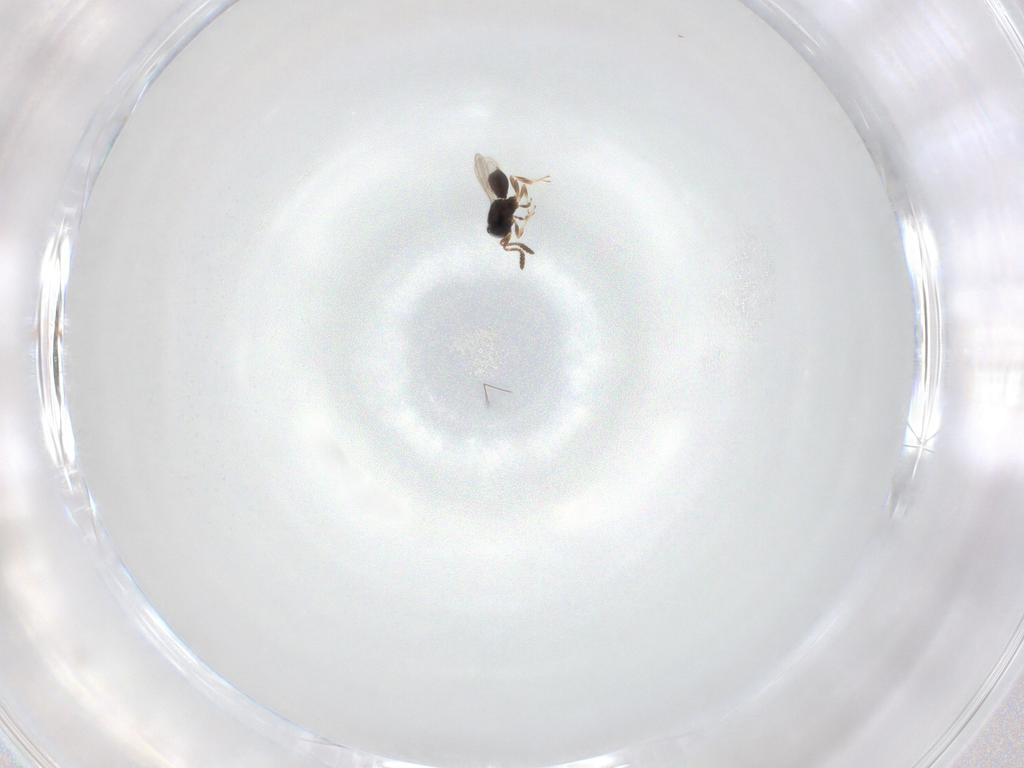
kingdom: Animalia
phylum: Arthropoda
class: Insecta
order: Hymenoptera
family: Scelionidae
